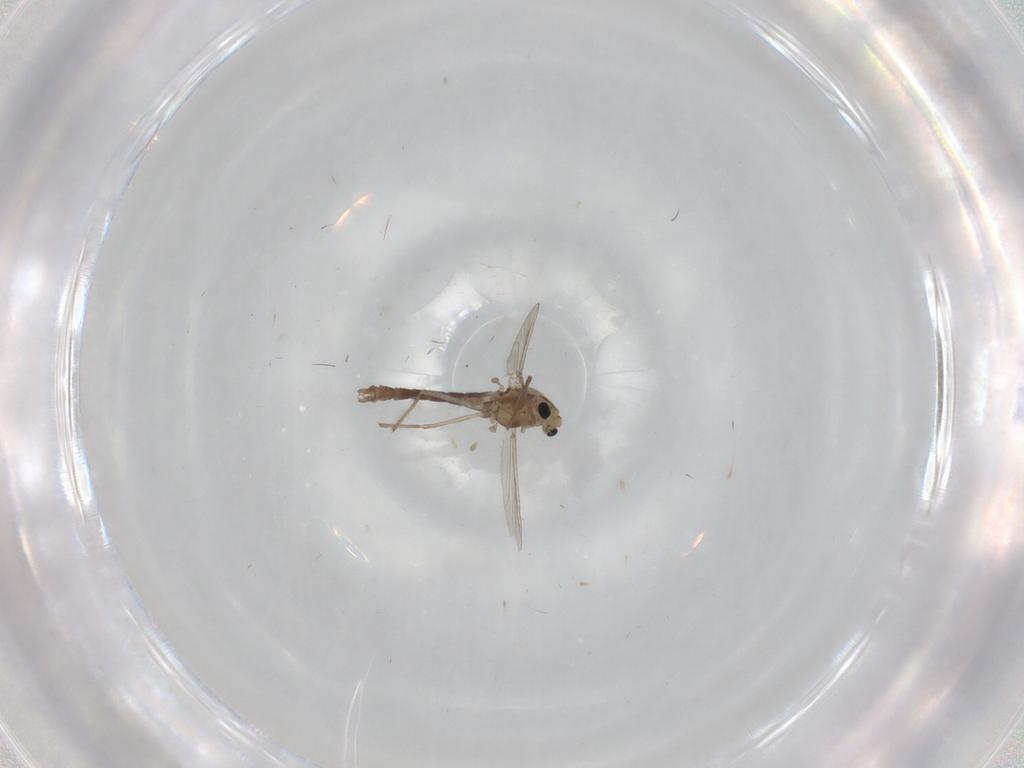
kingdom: Animalia
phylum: Arthropoda
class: Insecta
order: Diptera
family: Chironomidae
